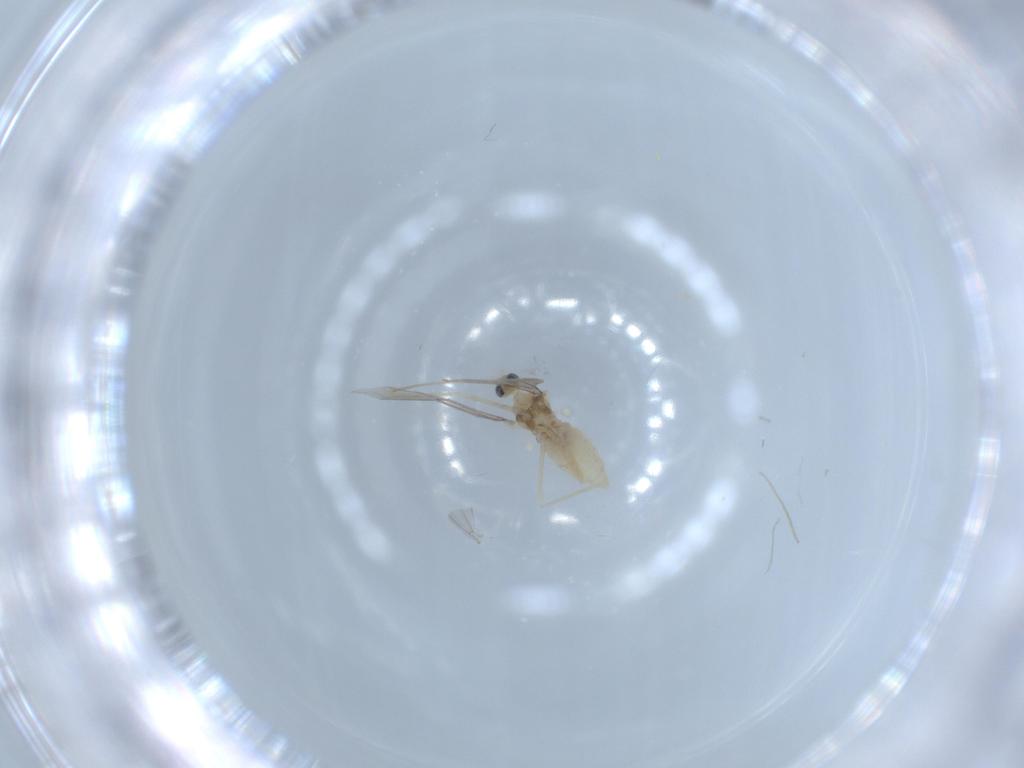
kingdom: Animalia
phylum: Arthropoda
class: Insecta
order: Diptera
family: Cecidomyiidae
